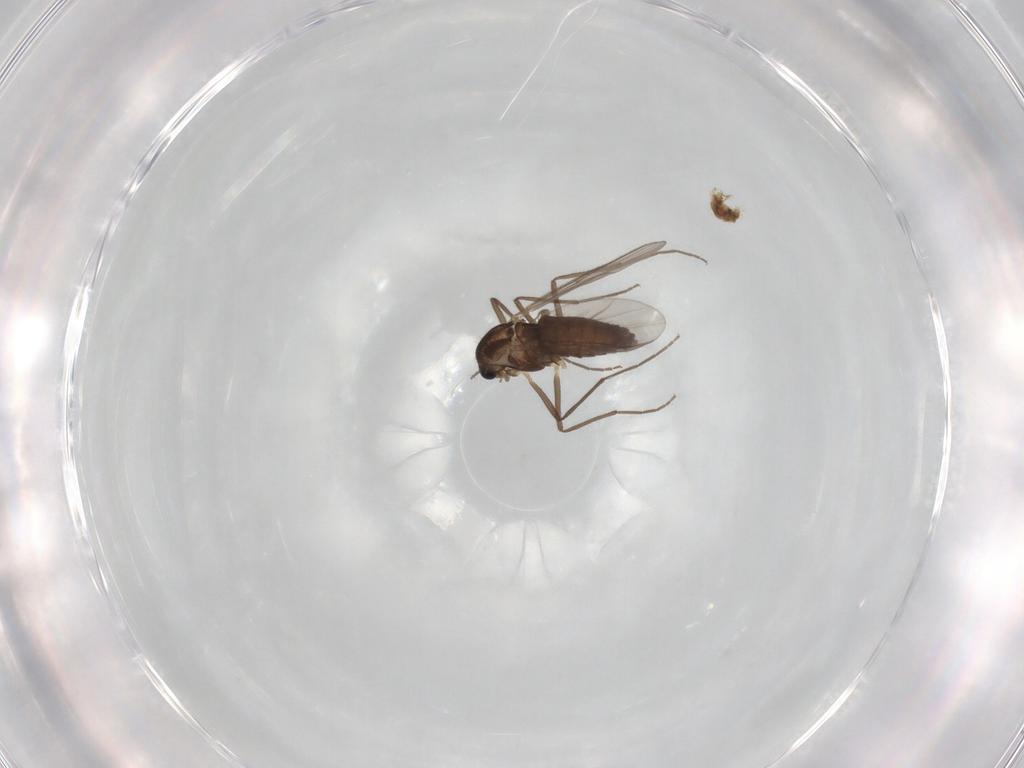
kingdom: Animalia
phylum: Arthropoda
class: Insecta
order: Diptera
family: Chironomidae
